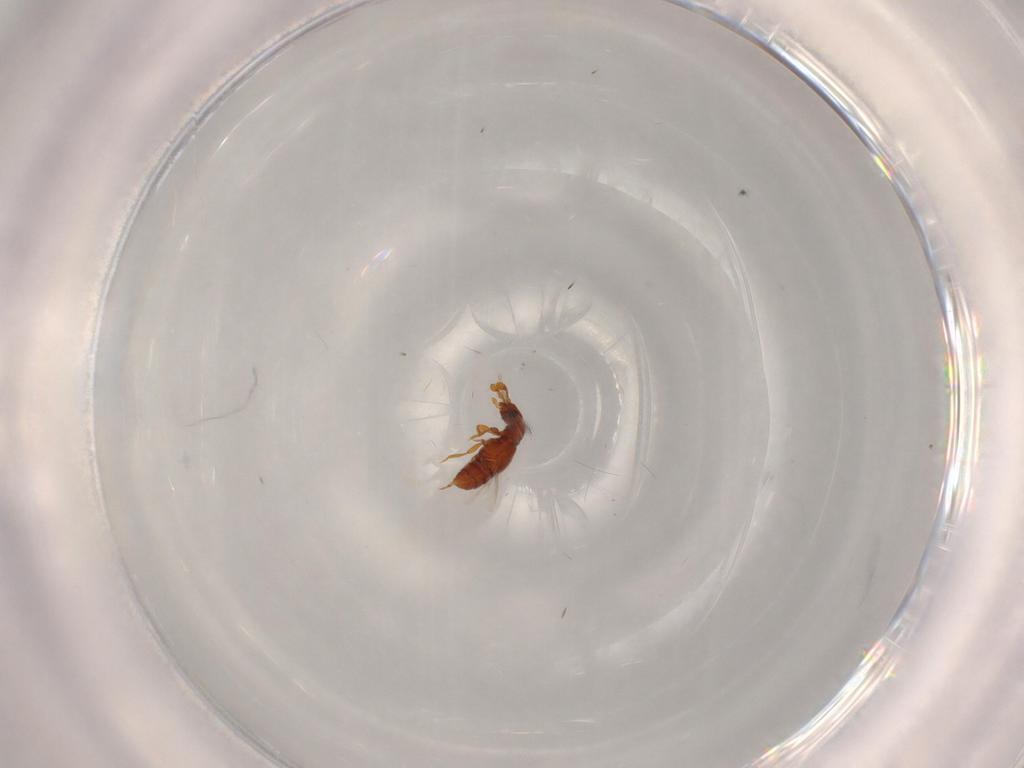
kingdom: Animalia
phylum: Arthropoda
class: Insecta
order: Coleoptera
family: Staphylinidae
